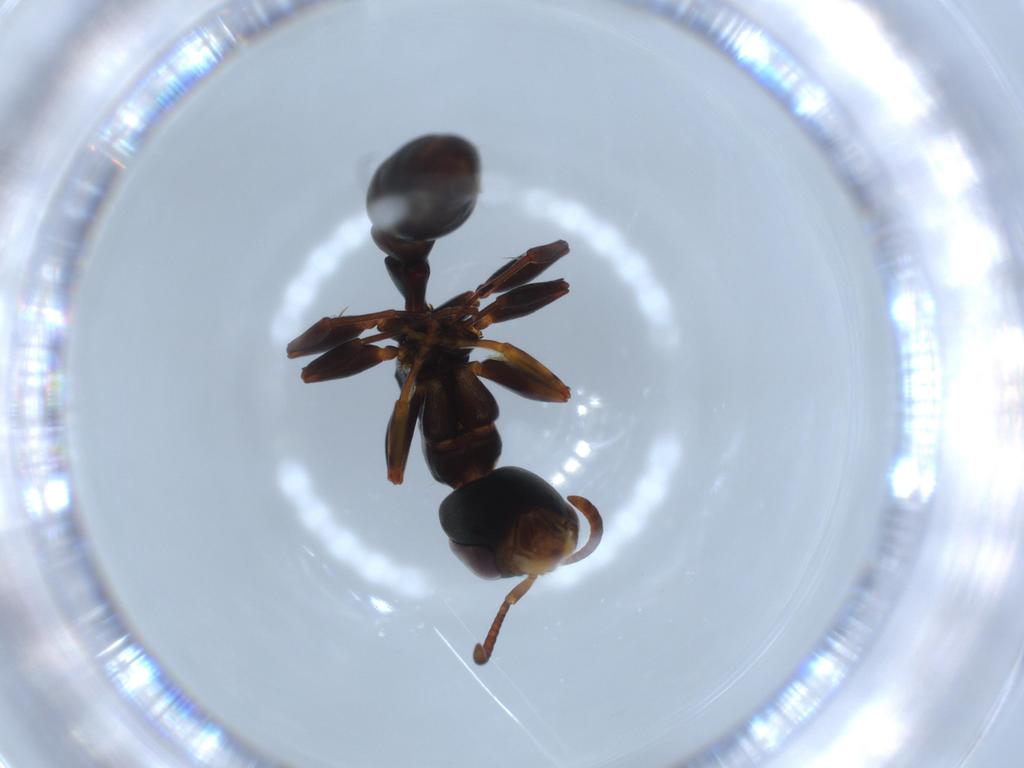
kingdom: Animalia
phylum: Arthropoda
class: Insecta
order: Hymenoptera
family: Formicidae
